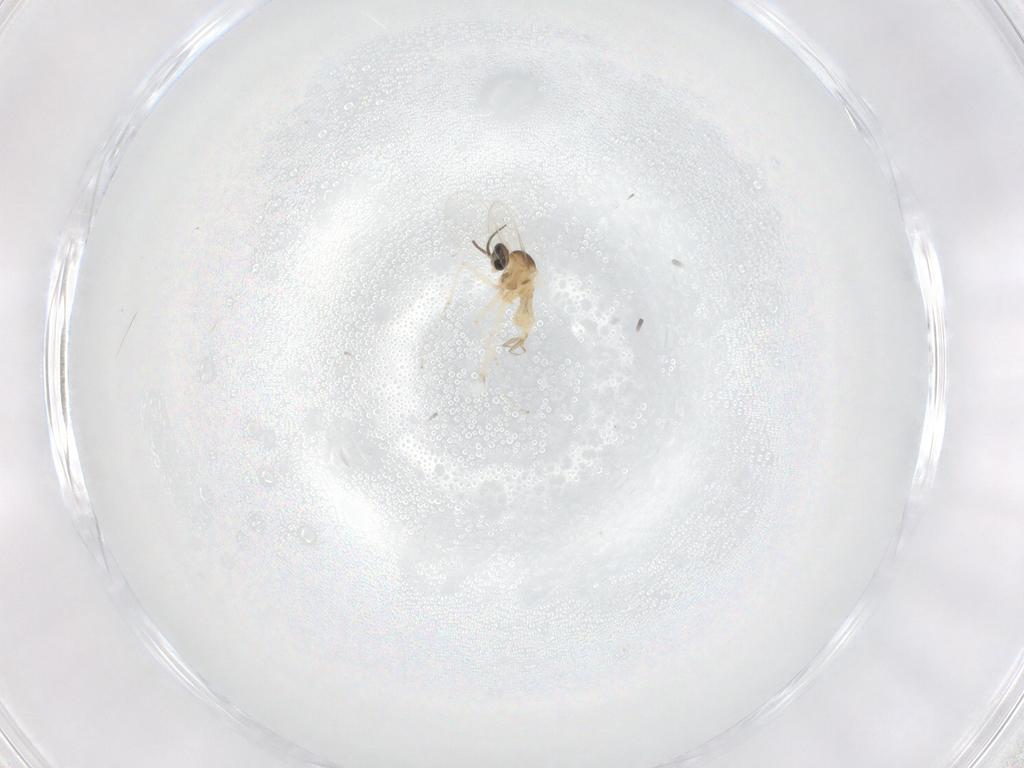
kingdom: Animalia
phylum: Arthropoda
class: Insecta
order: Diptera
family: Cecidomyiidae
